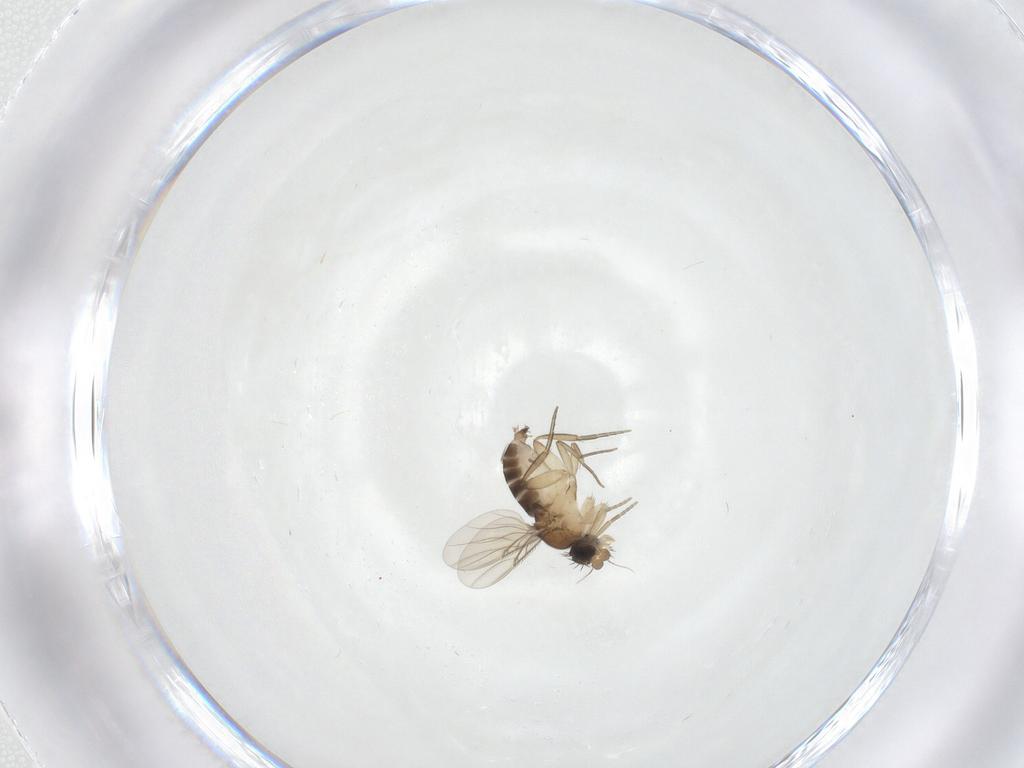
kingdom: Animalia
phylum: Arthropoda
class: Insecta
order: Diptera
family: Phoridae
